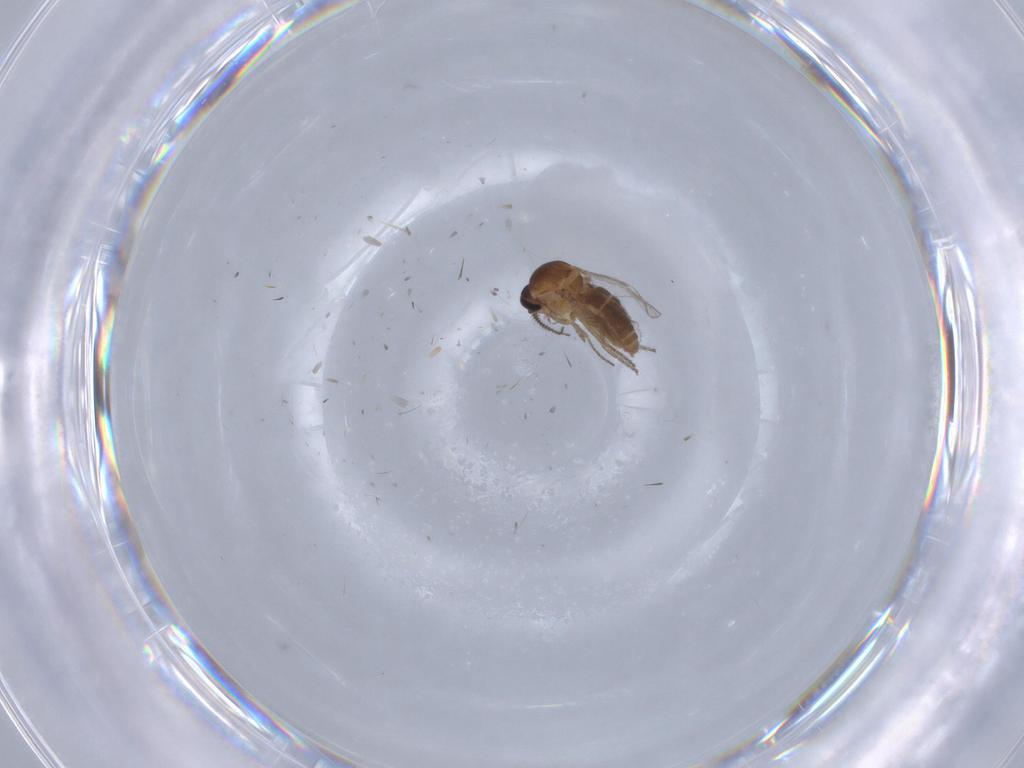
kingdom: Animalia
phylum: Arthropoda
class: Insecta
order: Diptera
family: Ceratopogonidae
